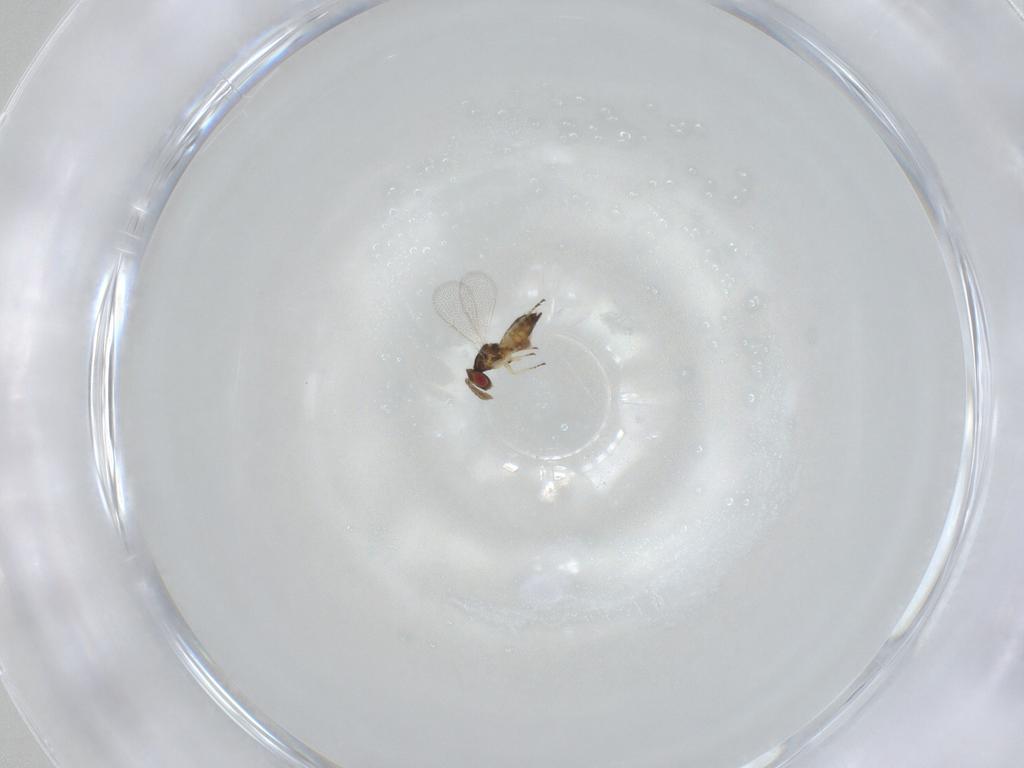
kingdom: Animalia
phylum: Arthropoda
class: Insecta
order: Hymenoptera
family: Eulophidae
